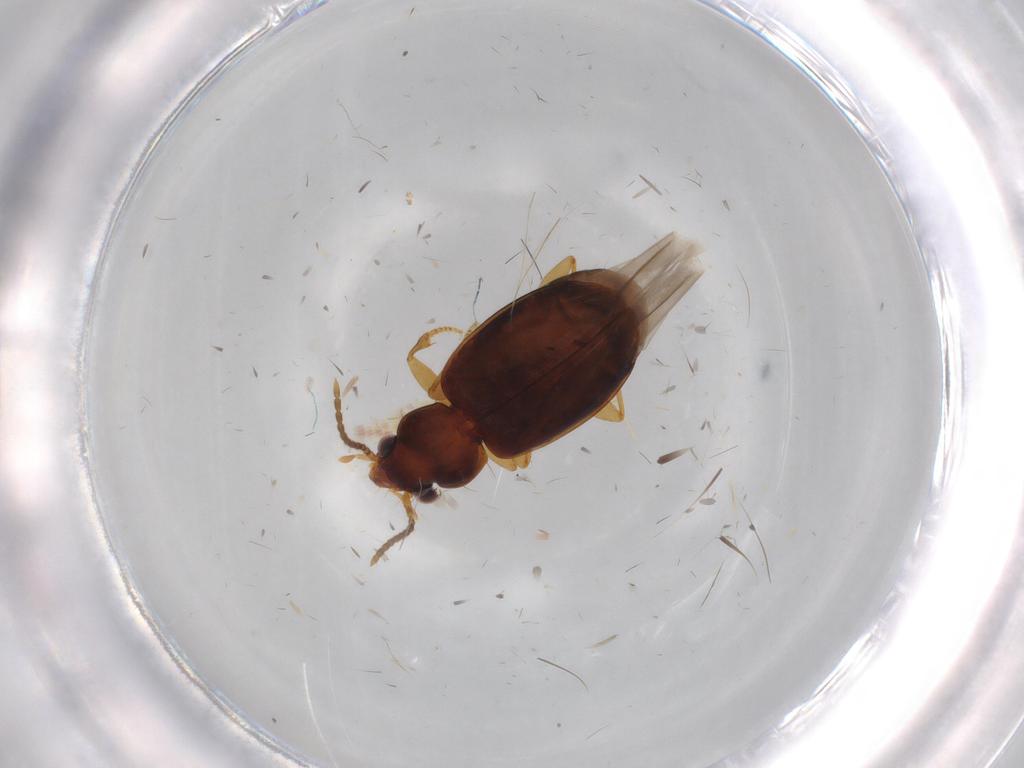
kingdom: Animalia
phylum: Arthropoda
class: Insecta
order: Coleoptera
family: Carabidae
